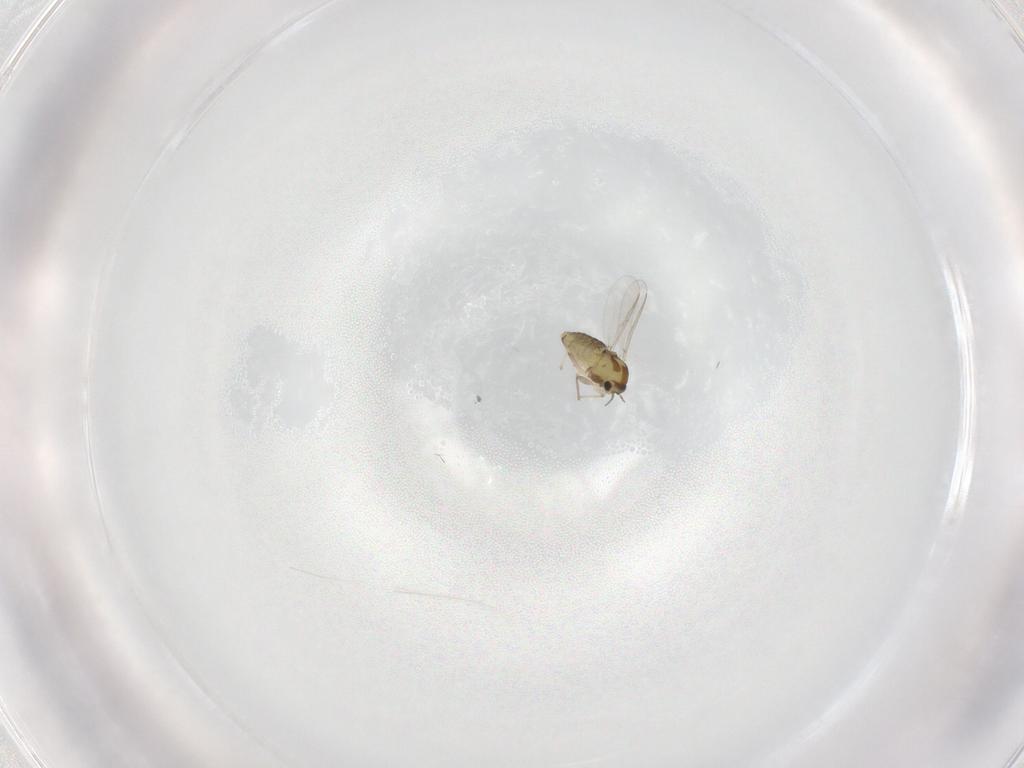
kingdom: Animalia
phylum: Arthropoda
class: Insecta
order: Diptera
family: Chironomidae
